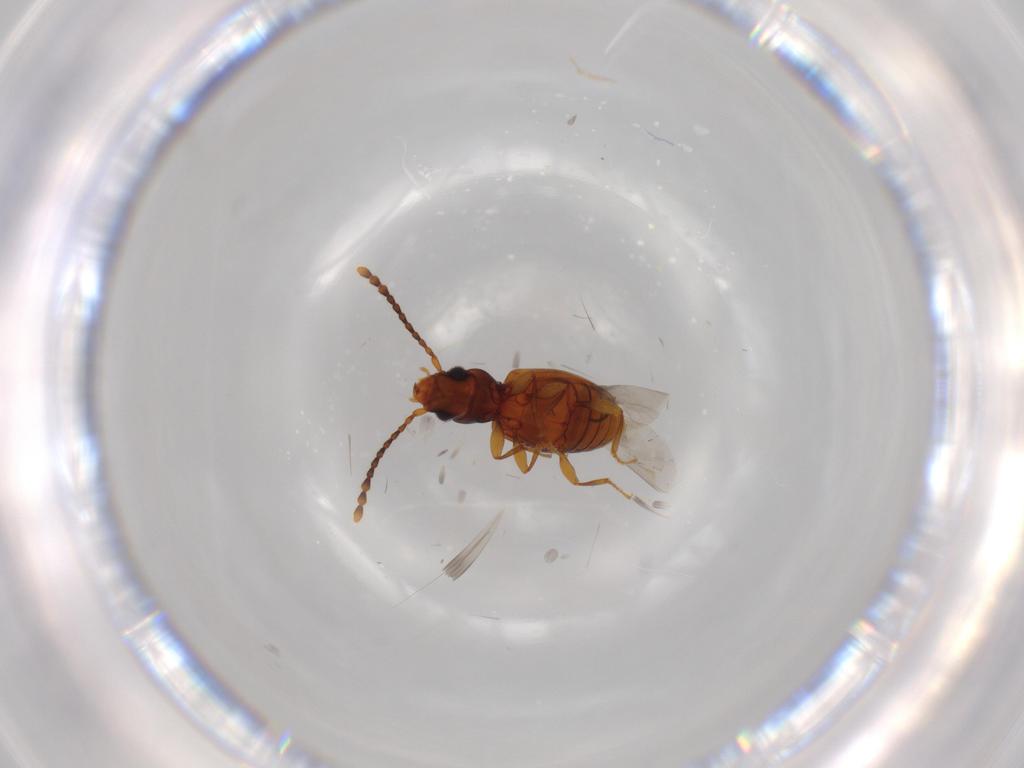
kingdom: Animalia
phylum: Arthropoda
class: Insecta
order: Coleoptera
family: Laemophloeidae
